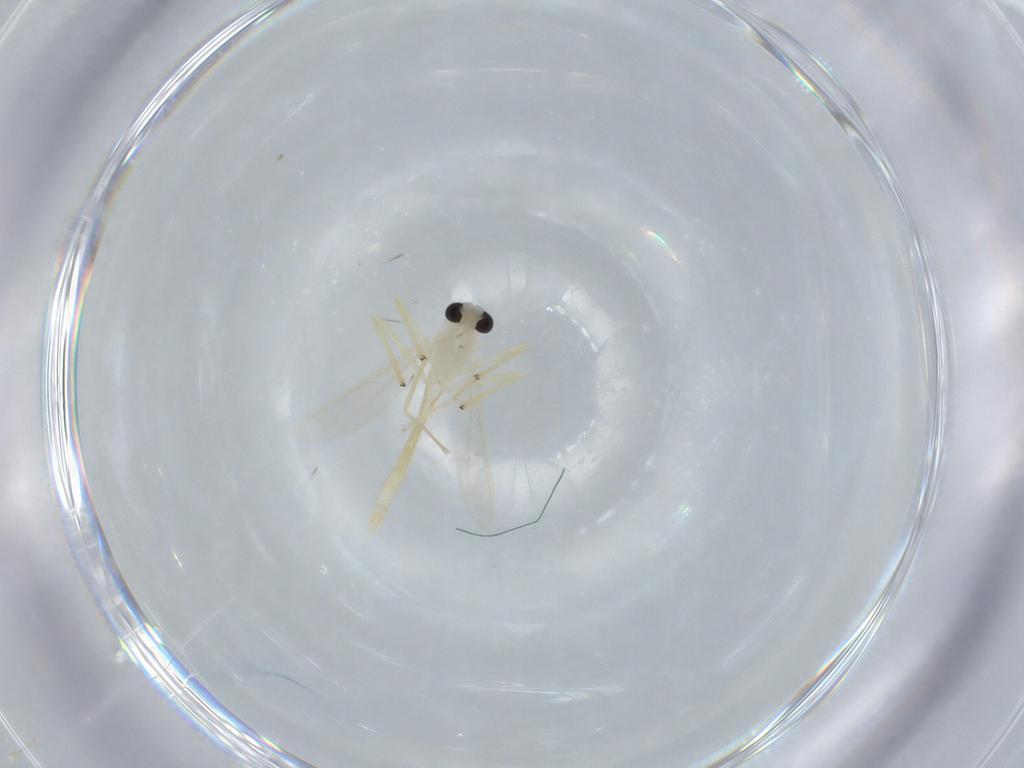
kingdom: Animalia
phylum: Arthropoda
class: Insecta
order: Diptera
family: Chironomidae
